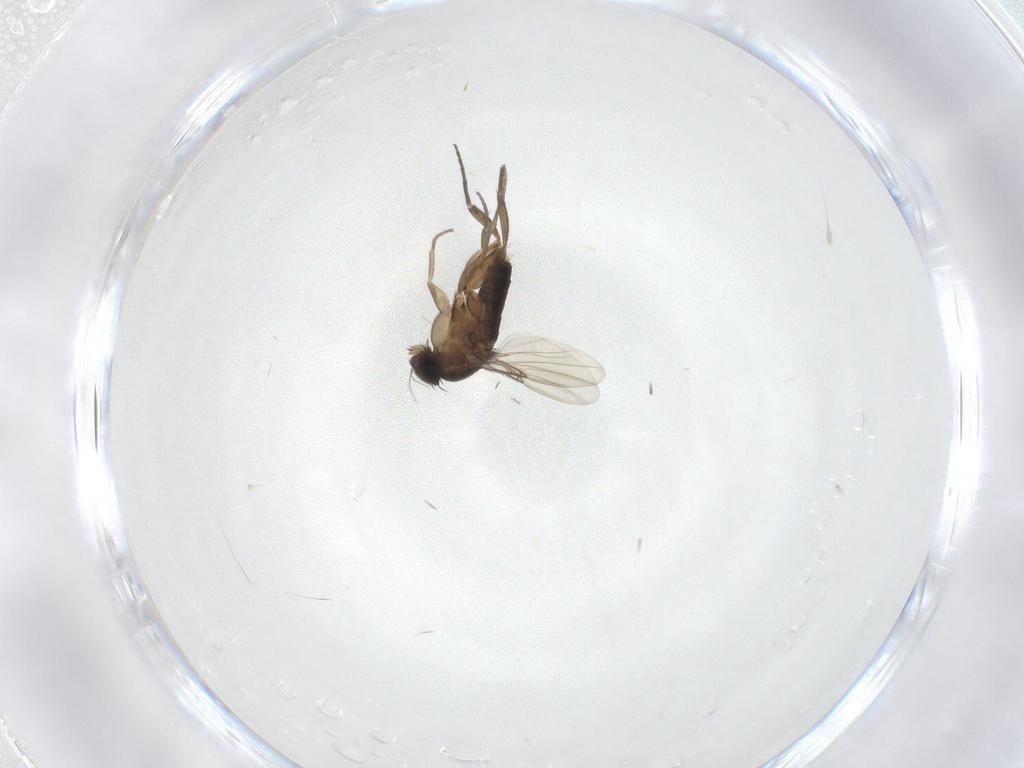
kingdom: Animalia
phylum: Arthropoda
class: Insecta
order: Diptera
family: Phoridae
